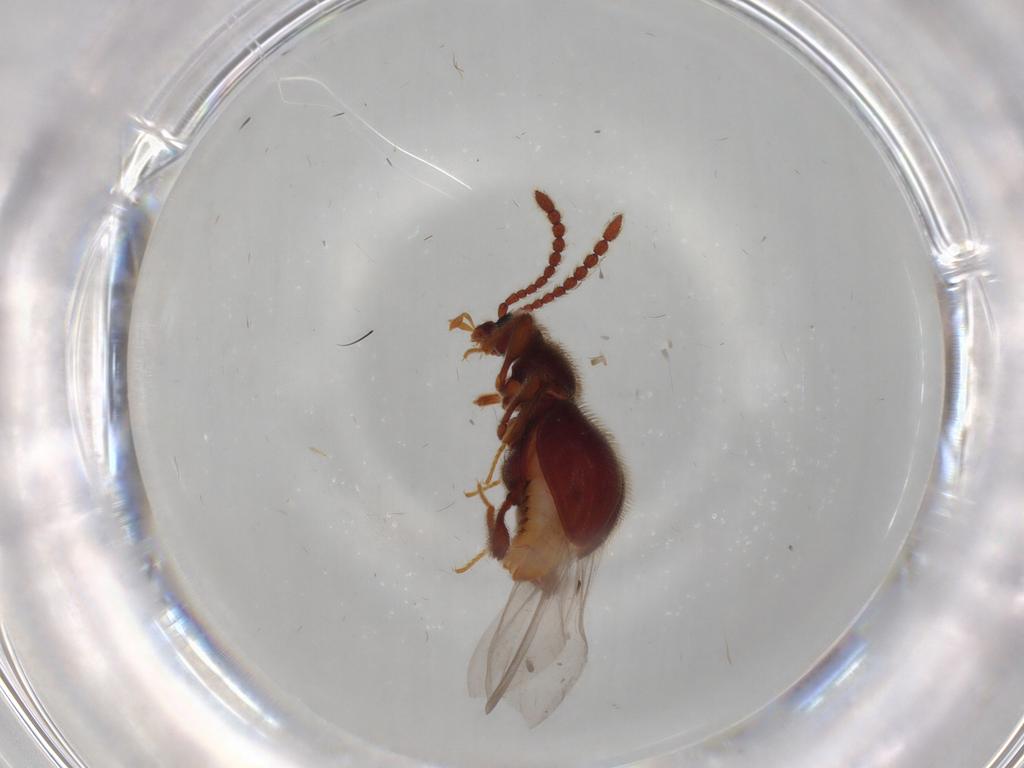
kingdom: Animalia
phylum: Arthropoda
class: Insecta
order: Coleoptera
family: Staphylinidae
